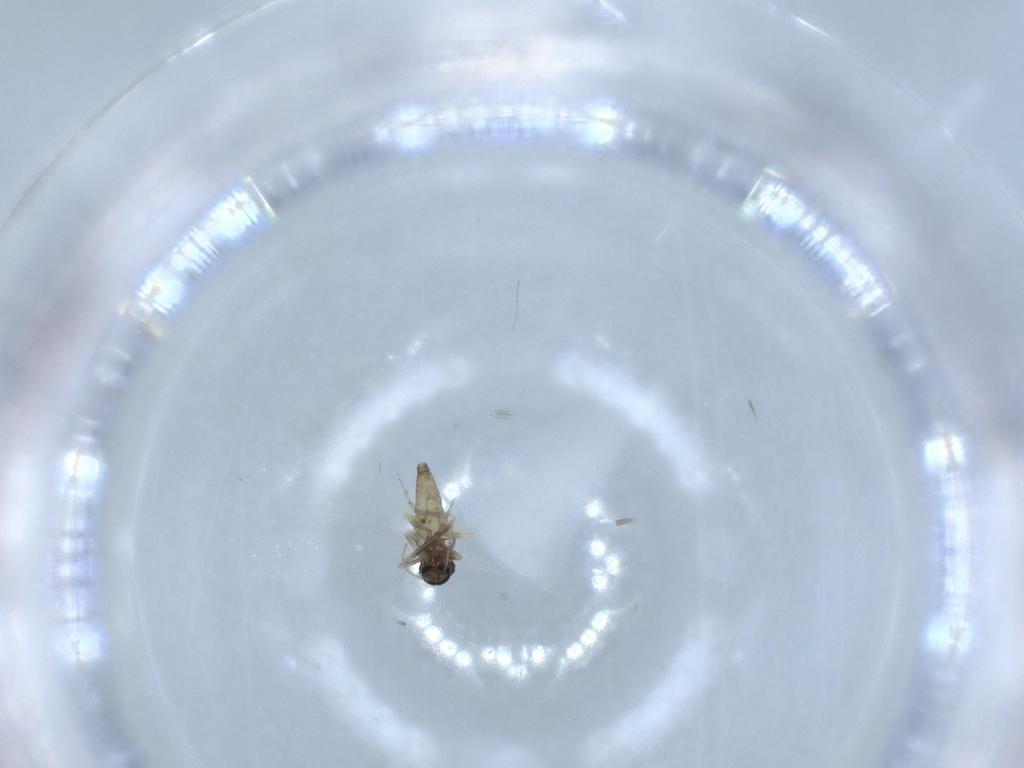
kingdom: Animalia
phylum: Arthropoda
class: Insecta
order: Diptera
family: Ceratopogonidae
